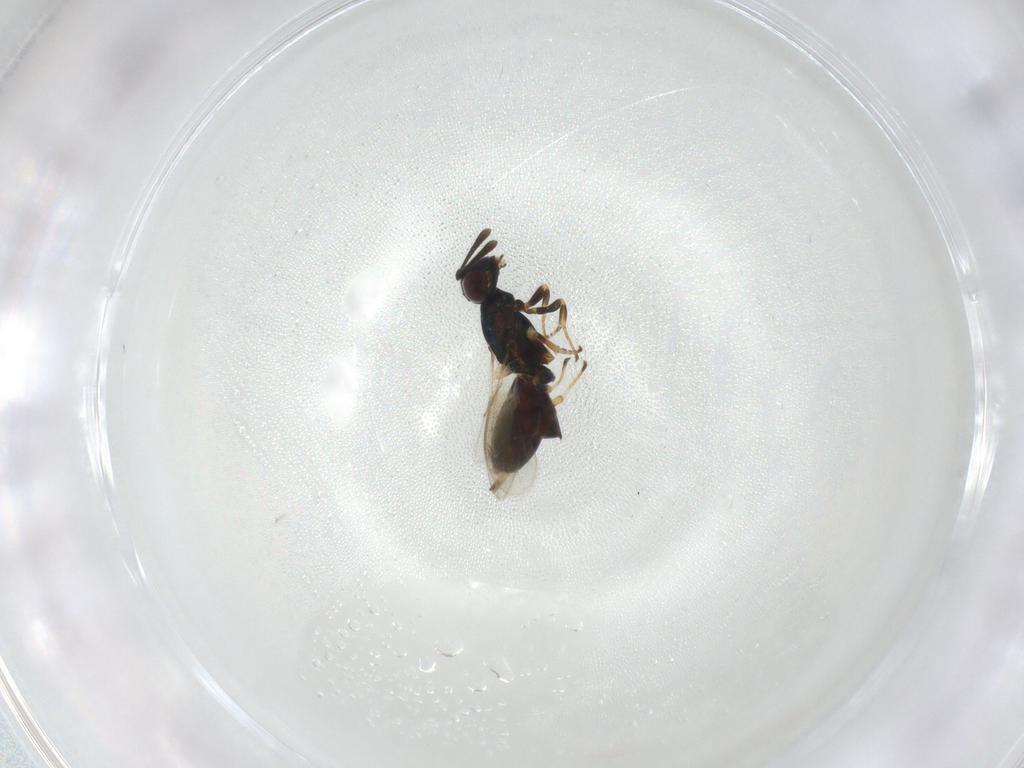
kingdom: Animalia
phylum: Arthropoda
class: Insecta
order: Hymenoptera
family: Eupelmidae
